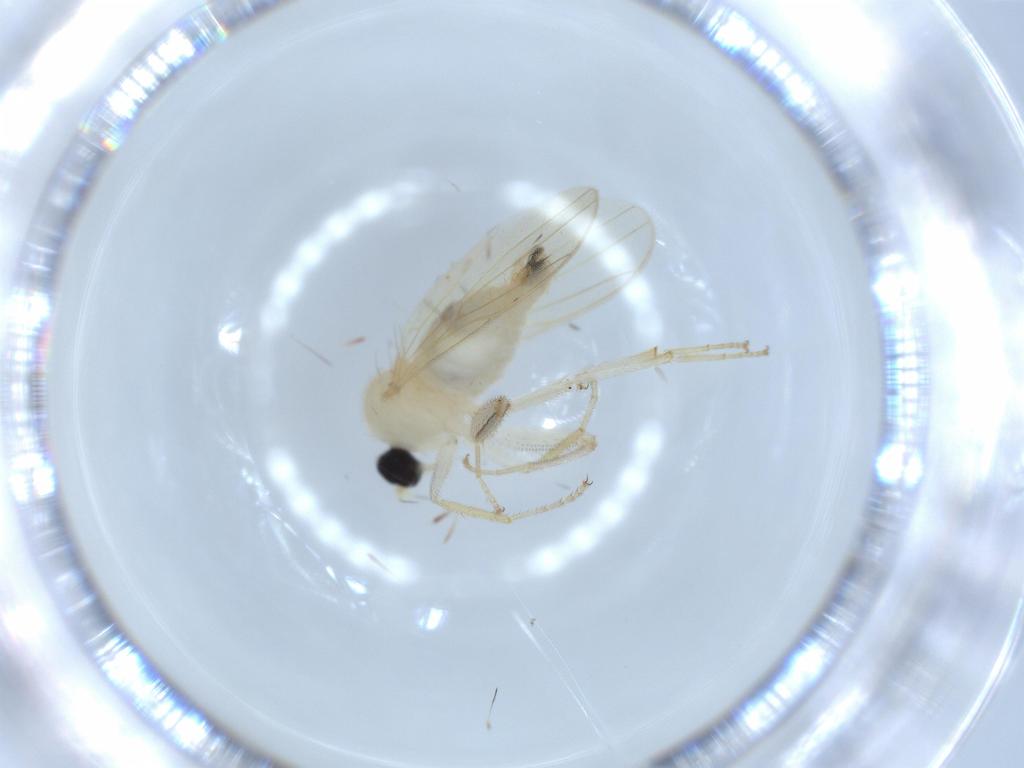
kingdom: Animalia
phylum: Arthropoda
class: Insecta
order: Diptera
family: Hybotidae
